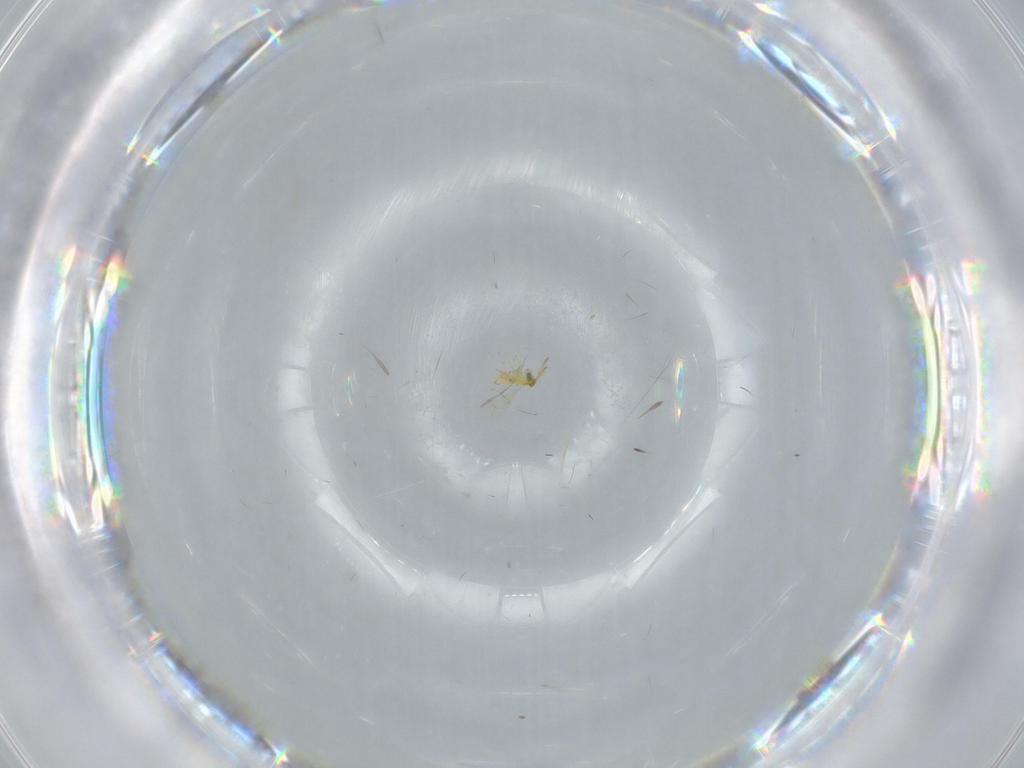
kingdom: Animalia
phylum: Arthropoda
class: Insecta
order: Hymenoptera
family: Aphelinidae
